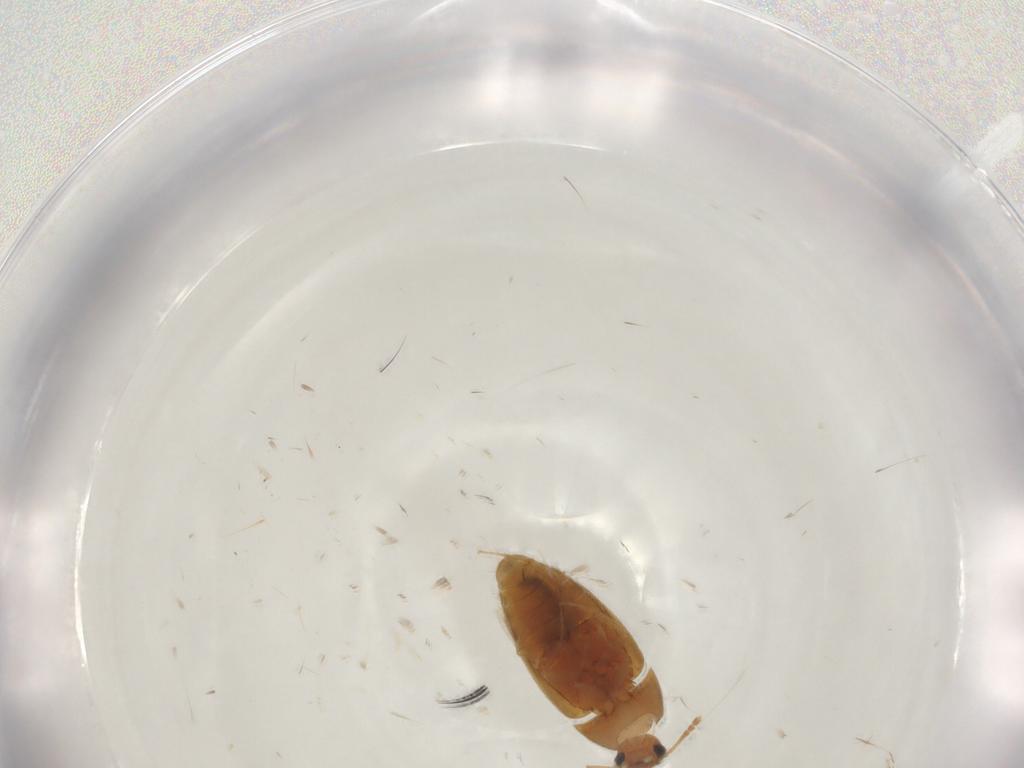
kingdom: Animalia
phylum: Arthropoda
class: Insecta
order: Coleoptera
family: Mycetophagidae
